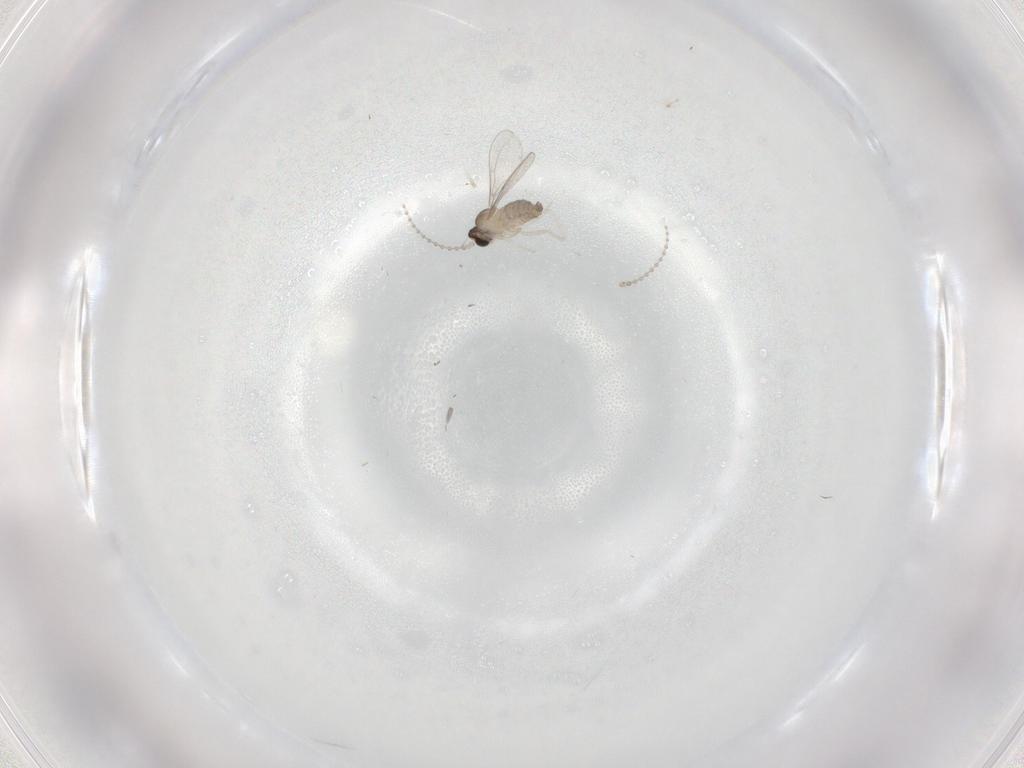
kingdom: Animalia
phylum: Arthropoda
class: Insecta
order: Diptera
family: Cecidomyiidae
